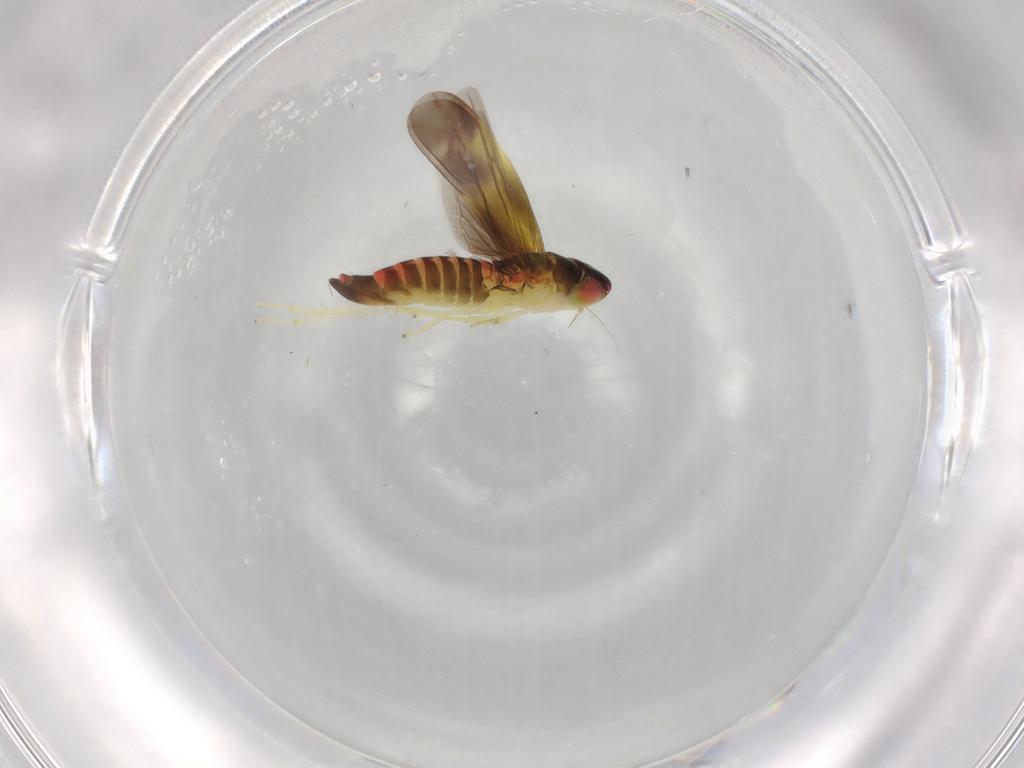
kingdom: Animalia
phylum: Arthropoda
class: Insecta
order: Hemiptera
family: Cicadellidae
